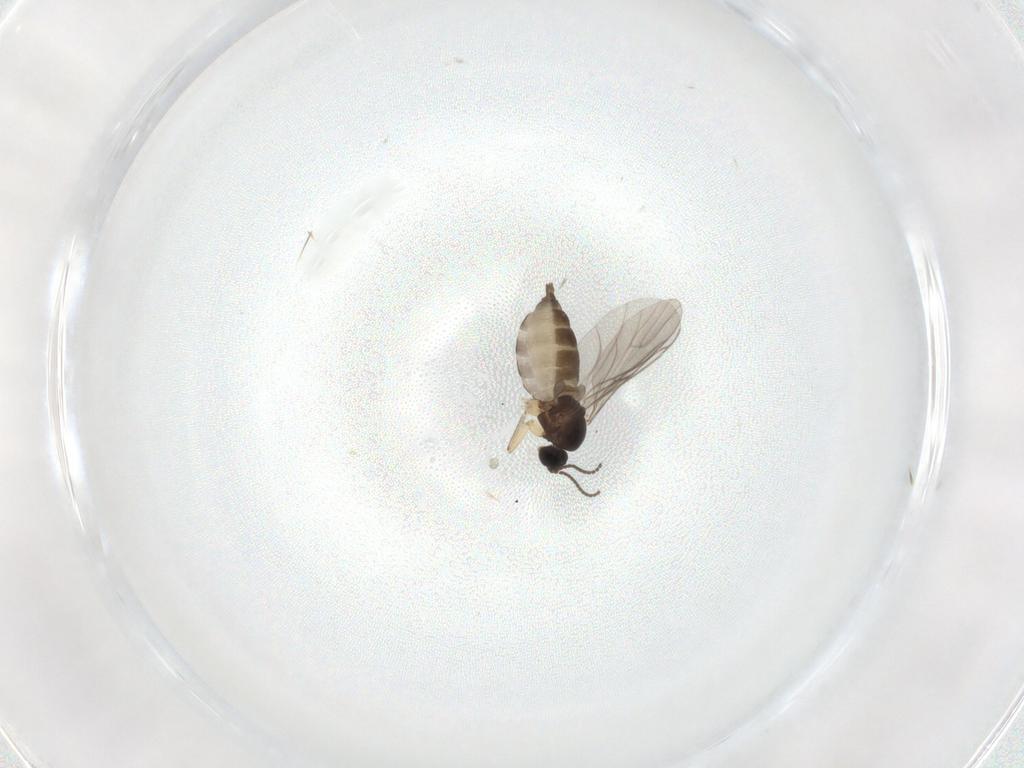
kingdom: Animalia
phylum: Arthropoda
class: Insecta
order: Diptera
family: Sciaridae
